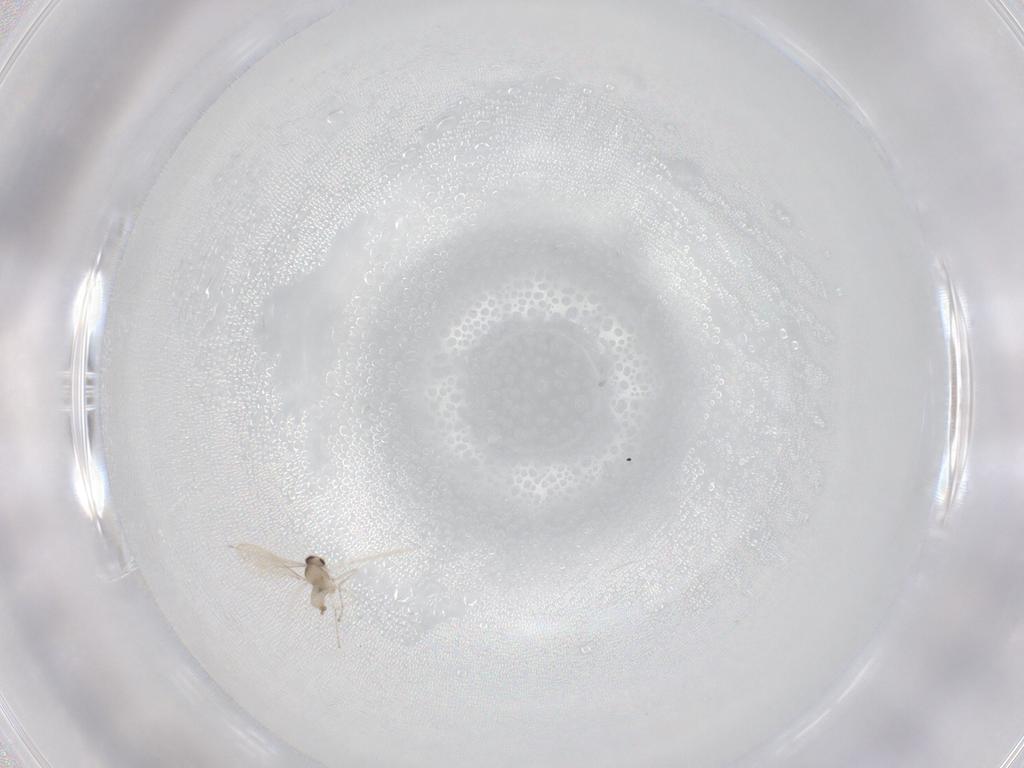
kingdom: Animalia
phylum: Arthropoda
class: Insecta
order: Diptera
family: Cecidomyiidae
